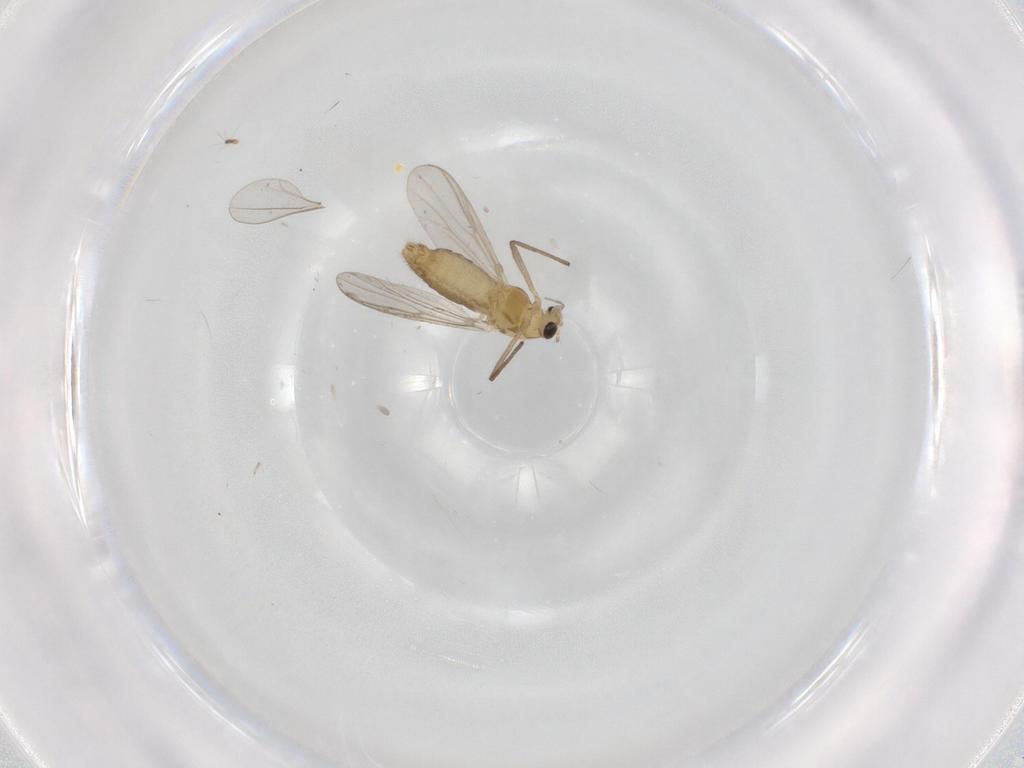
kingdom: Animalia
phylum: Arthropoda
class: Insecta
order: Diptera
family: Chironomidae
